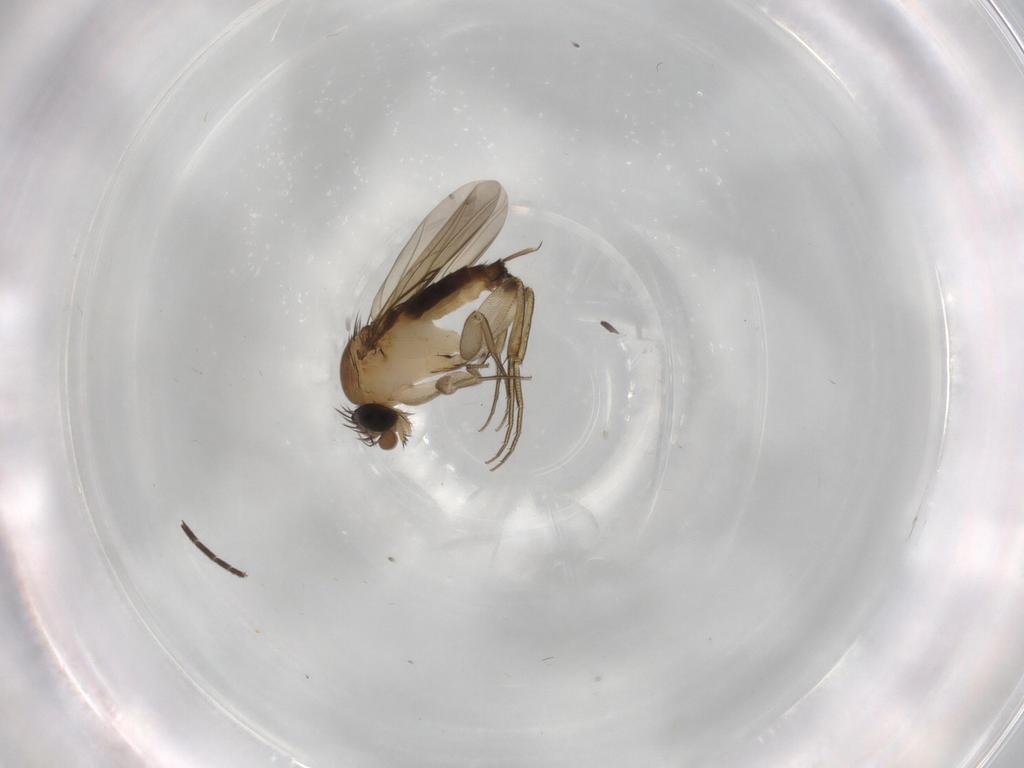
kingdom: Animalia
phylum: Arthropoda
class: Insecta
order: Diptera
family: Phoridae
